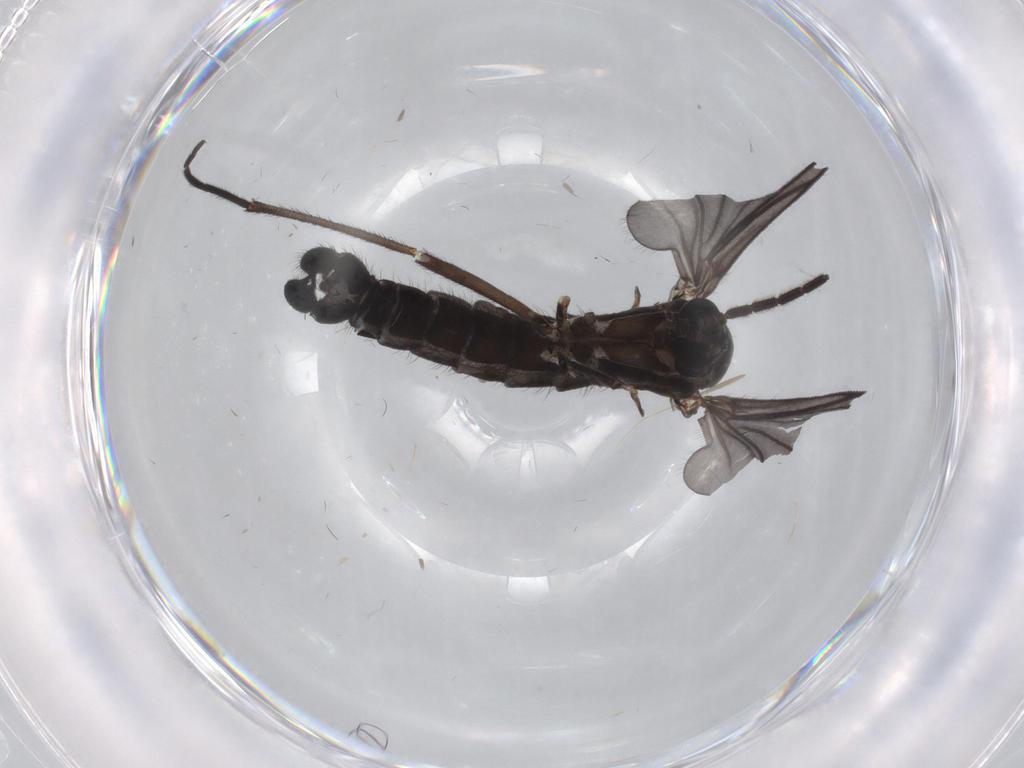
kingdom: Animalia
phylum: Arthropoda
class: Insecta
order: Diptera
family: Sciaridae
